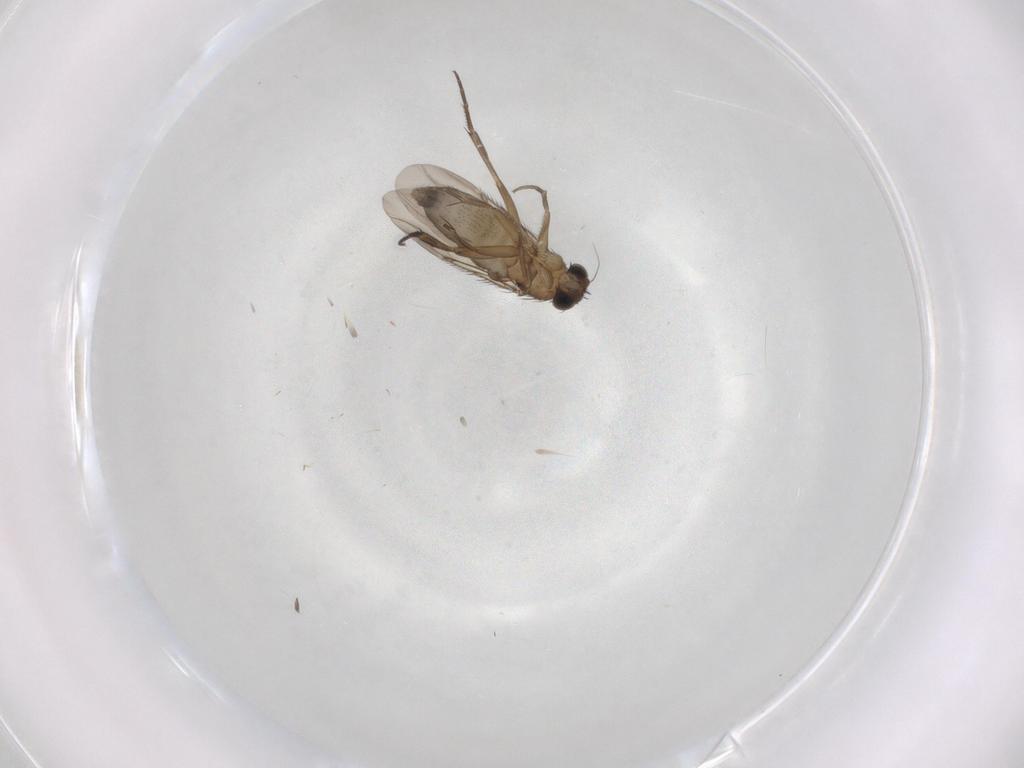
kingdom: Animalia
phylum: Arthropoda
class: Insecta
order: Diptera
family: Phoridae
